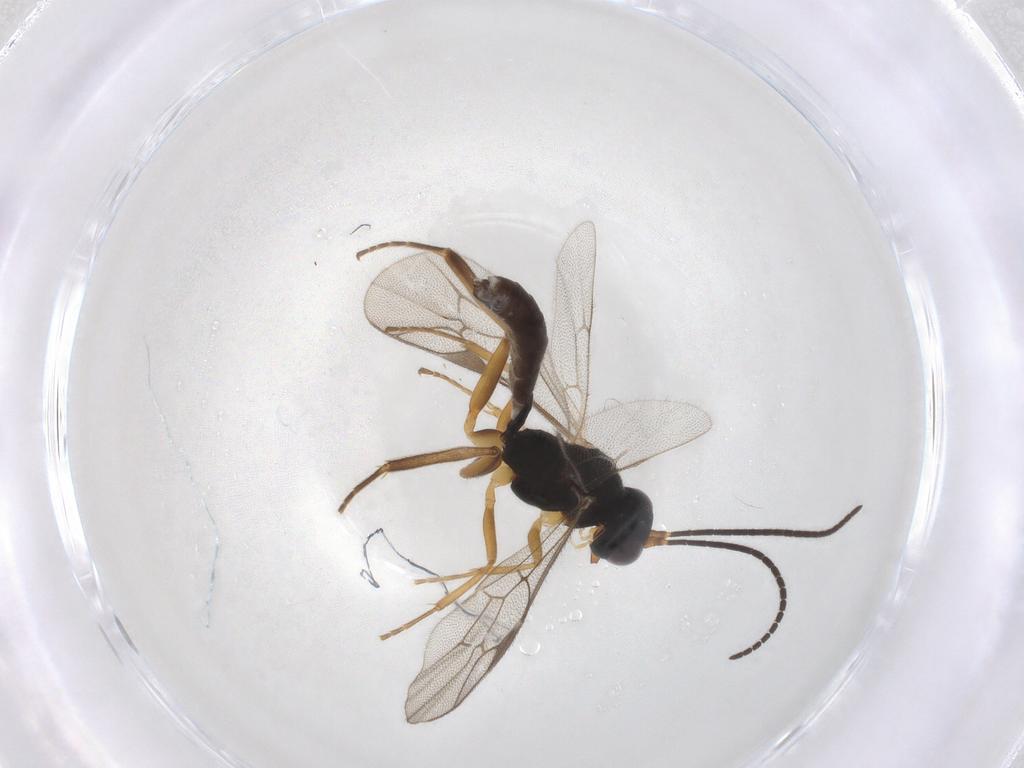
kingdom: Animalia
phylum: Arthropoda
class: Insecta
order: Hymenoptera
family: Ichneumonidae
